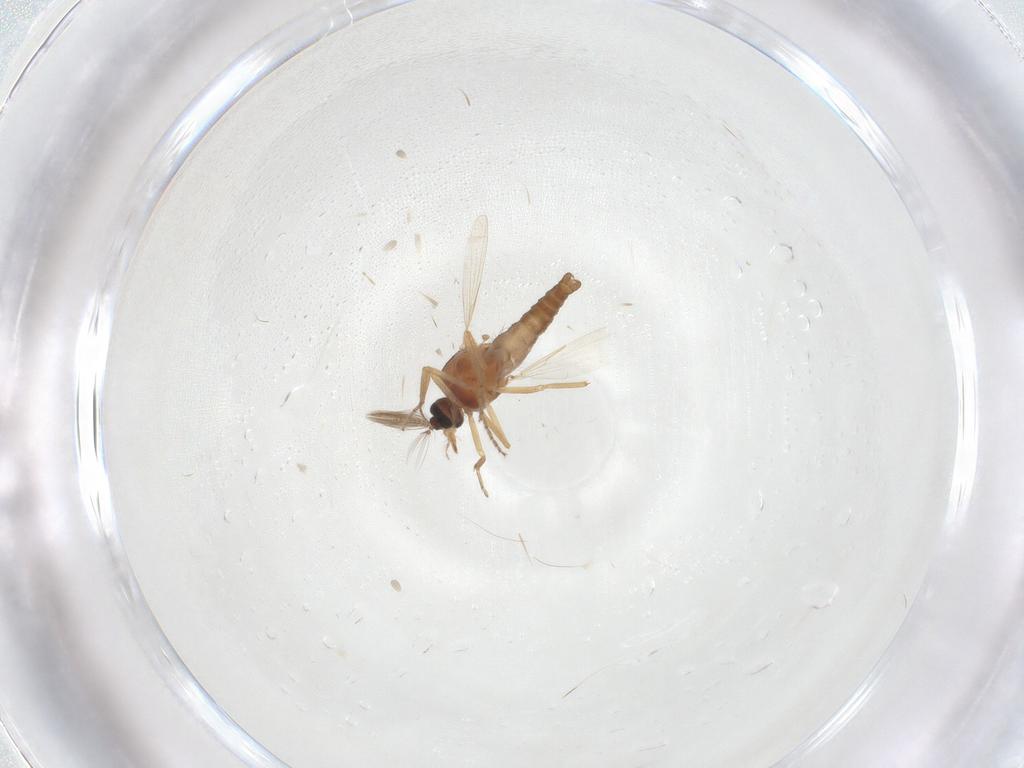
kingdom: Animalia
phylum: Arthropoda
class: Insecta
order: Diptera
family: Ceratopogonidae
